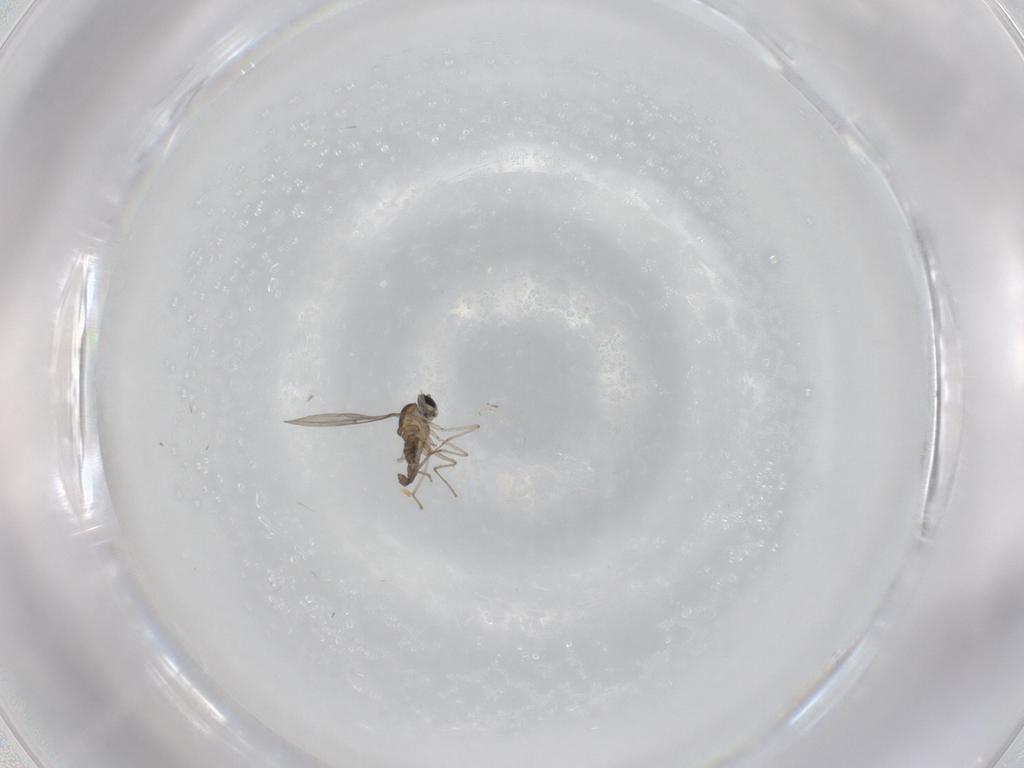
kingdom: Animalia
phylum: Arthropoda
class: Insecta
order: Diptera
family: Cecidomyiidae
